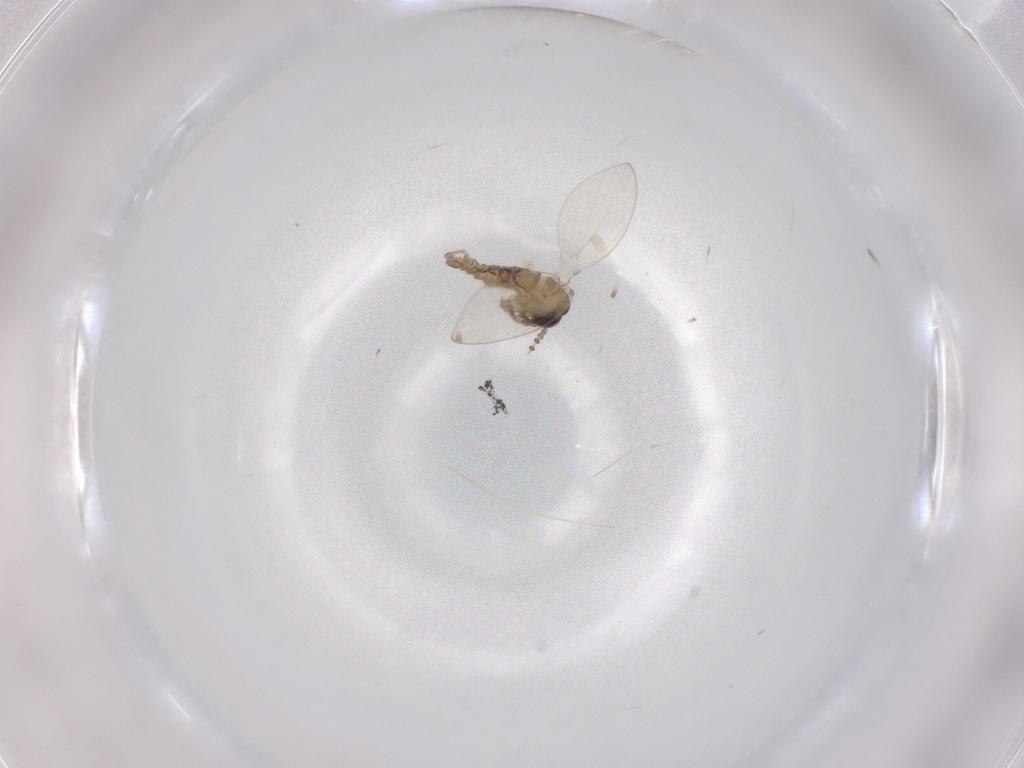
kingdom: Animalia
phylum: Arthropoda
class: Insecta
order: Diptera
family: Psychodidae
